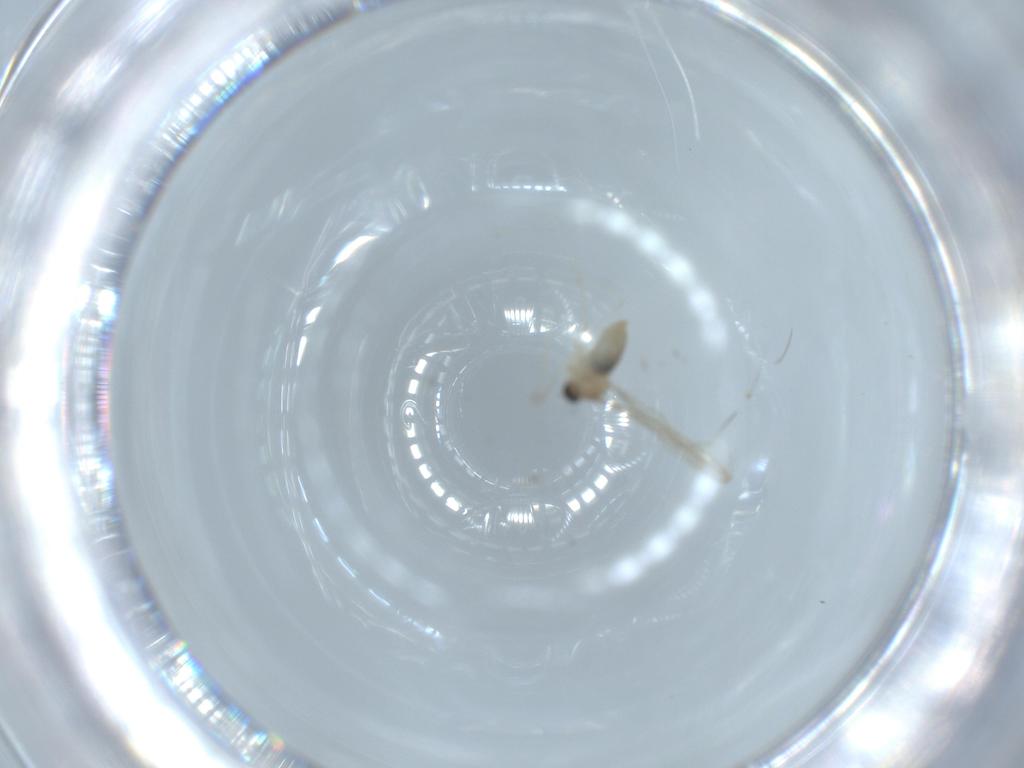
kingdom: Animalia
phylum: Arthropoda
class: Insecta
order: Diptera
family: Cecidomyiidae
